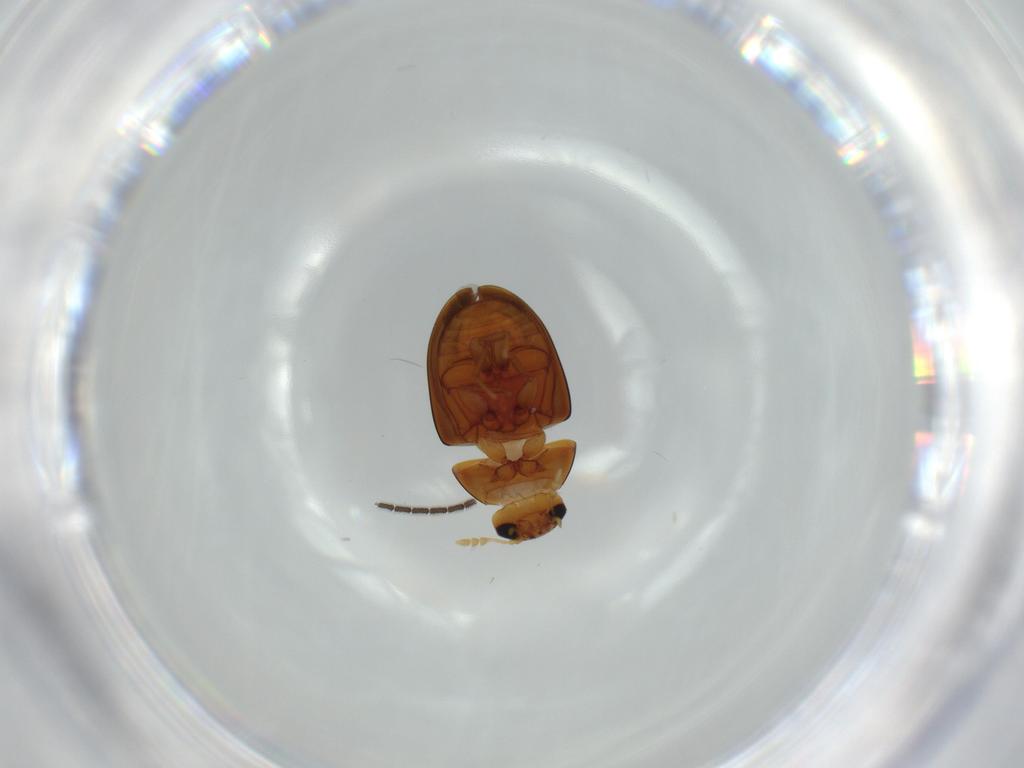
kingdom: Animalia
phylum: Arthropoda
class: Insecta
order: Coleoptera
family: Phalacridae
